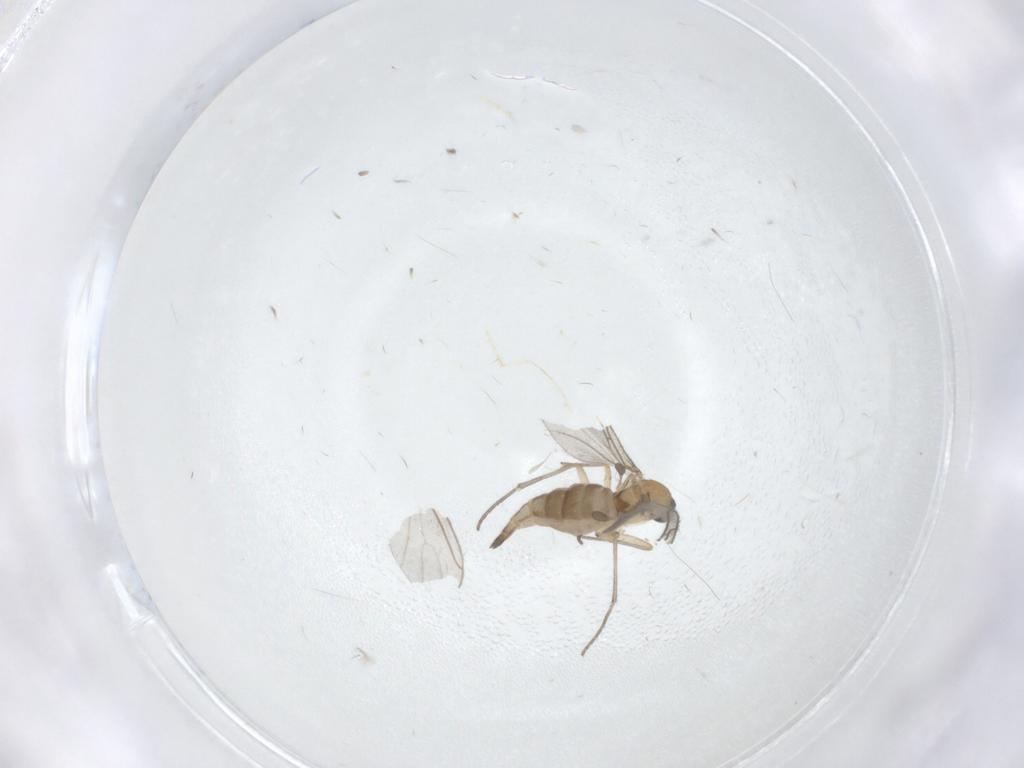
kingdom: Animalia
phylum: Arthropoda
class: Insecta
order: Diptera
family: Sciaridae
